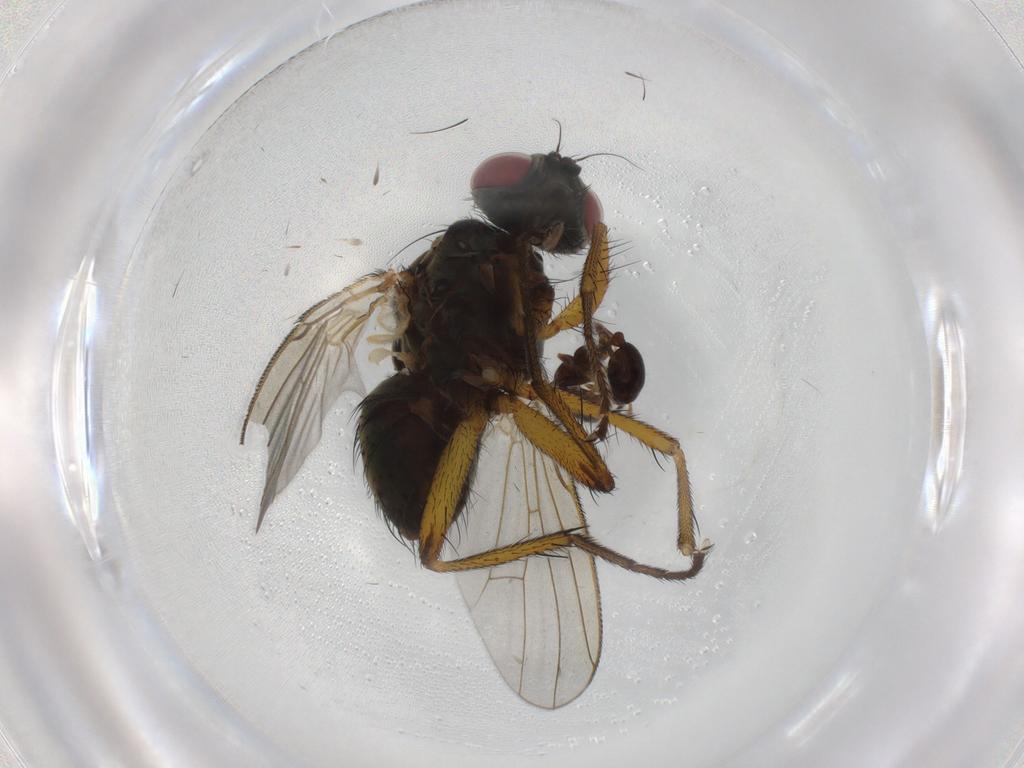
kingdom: Animalia
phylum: Arthropoda
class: Insecta
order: Diptera
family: Muscidae
